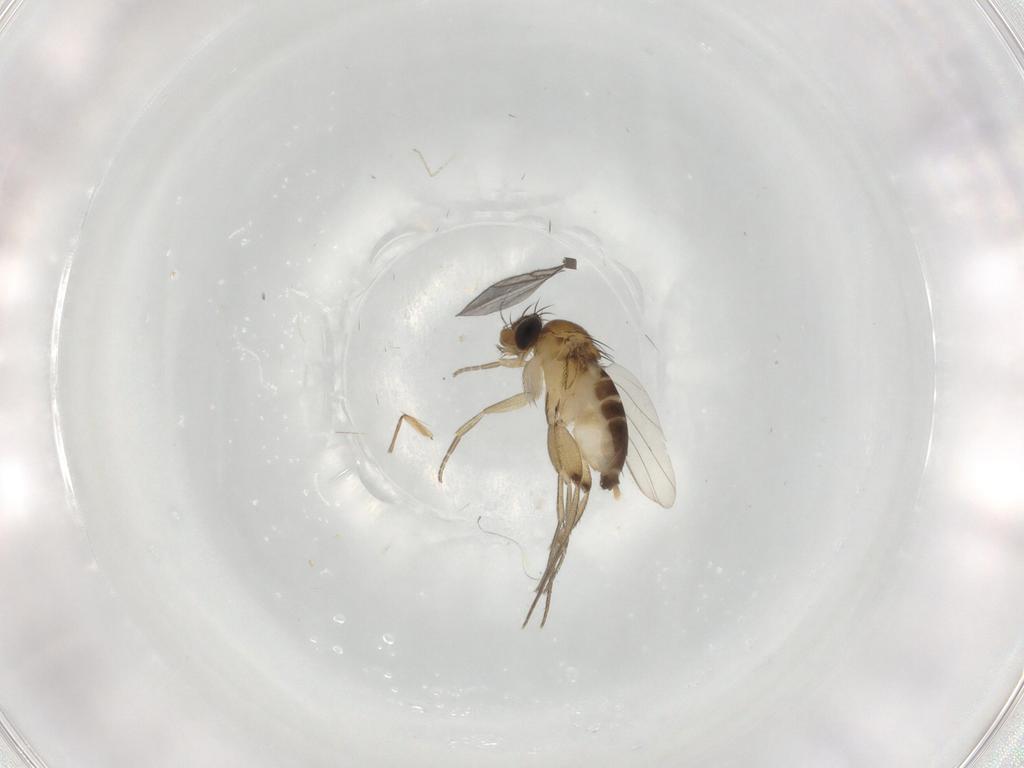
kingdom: Animalia
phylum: Arthropoda
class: Insecta
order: Diptera
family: Phoridae
